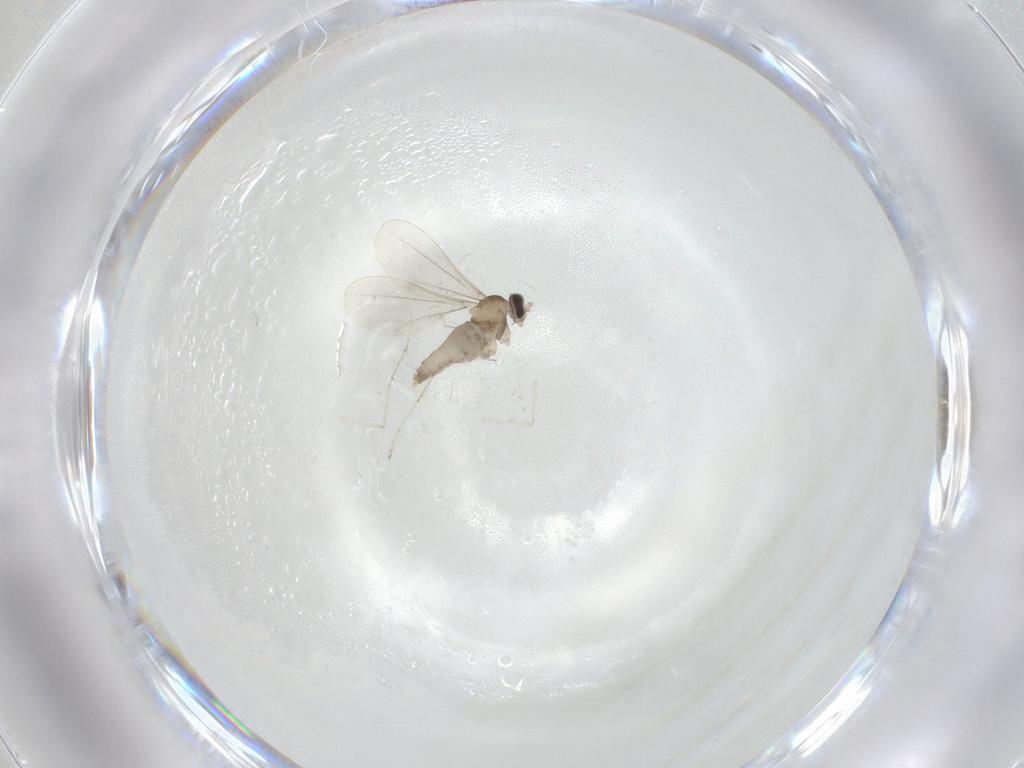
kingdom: Animalia
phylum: Arthropoda
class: Insecta
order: Diptera
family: Cecidomyiidae
